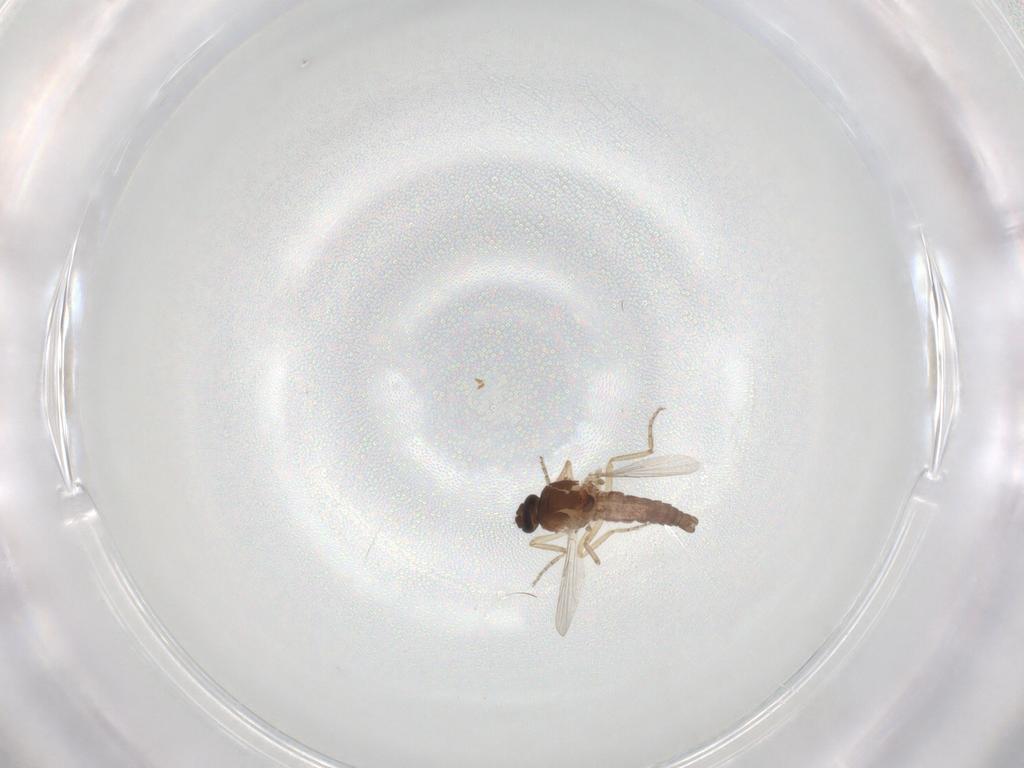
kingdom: Animalia
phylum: Arthropoda
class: Insecta
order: Diptera
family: Ceratopogonidae
